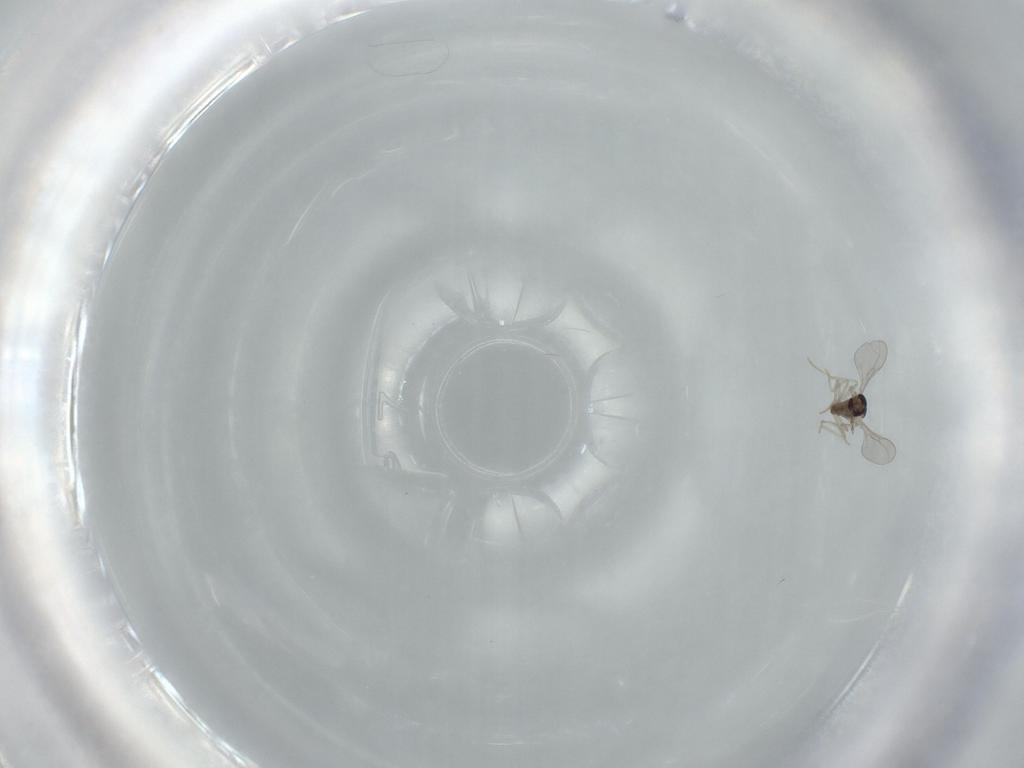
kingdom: Animalia
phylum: Arthropoda
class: Insecta
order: Diptera
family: Cecidomyiidae
